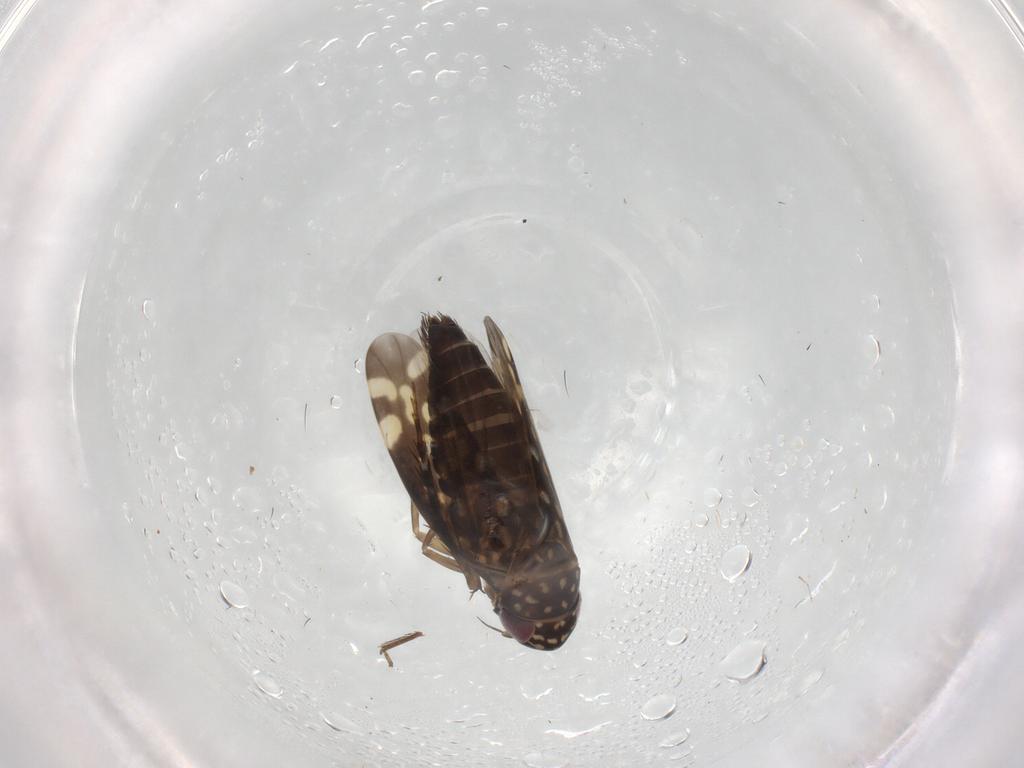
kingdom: Animalia
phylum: Arthropoda
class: Insecta
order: Hemiptera
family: Cicadellidae
